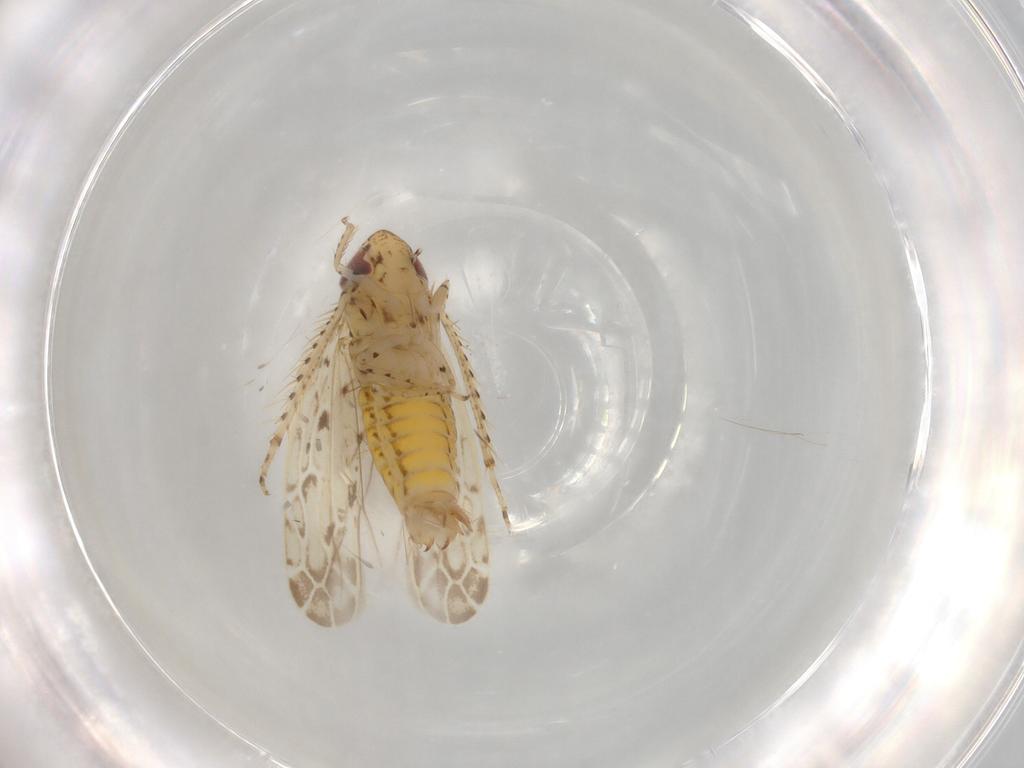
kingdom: Animalia
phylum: Arthropoda
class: Insecta
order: Hemiptera
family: Cicadellidae
